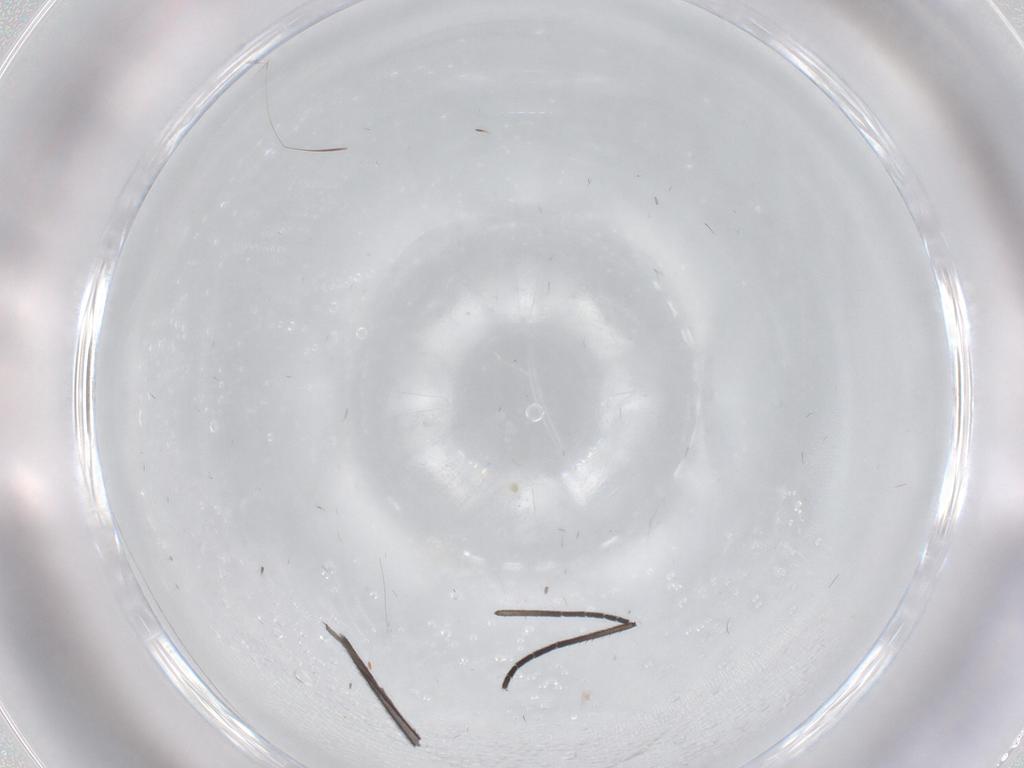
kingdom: Animalia
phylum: Arthropoda
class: Insecta
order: Diptera
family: Sciaridae
